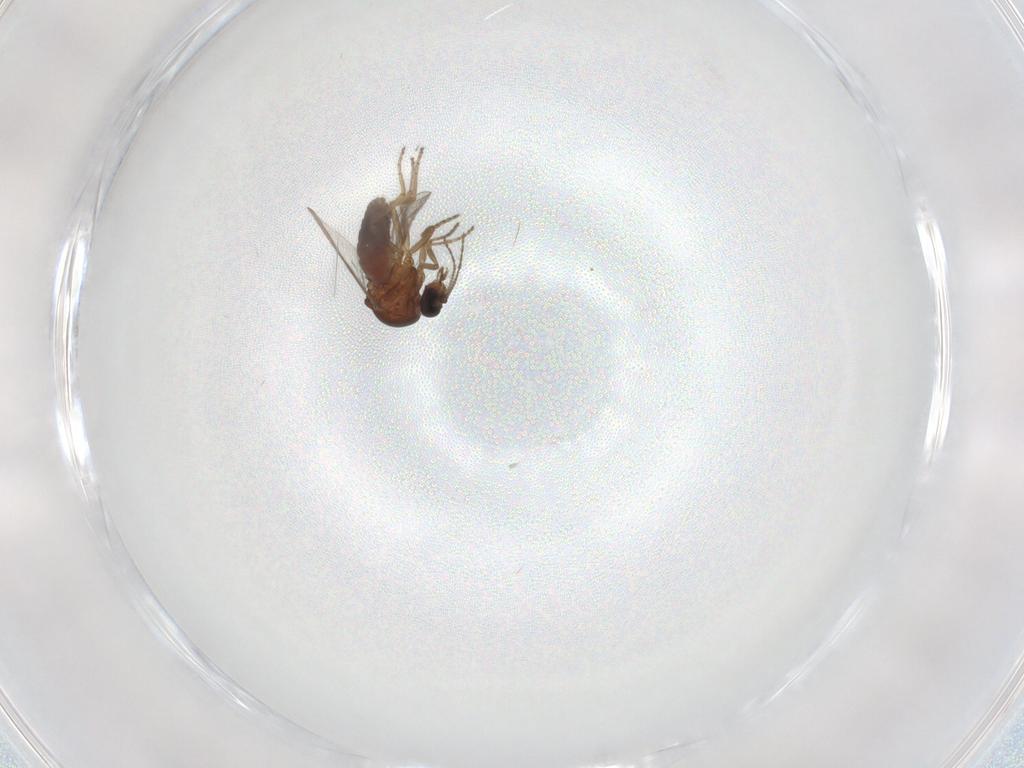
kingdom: Animalia
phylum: Arthropoda
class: Insecta
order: Diptera
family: Ceratopogonidae
